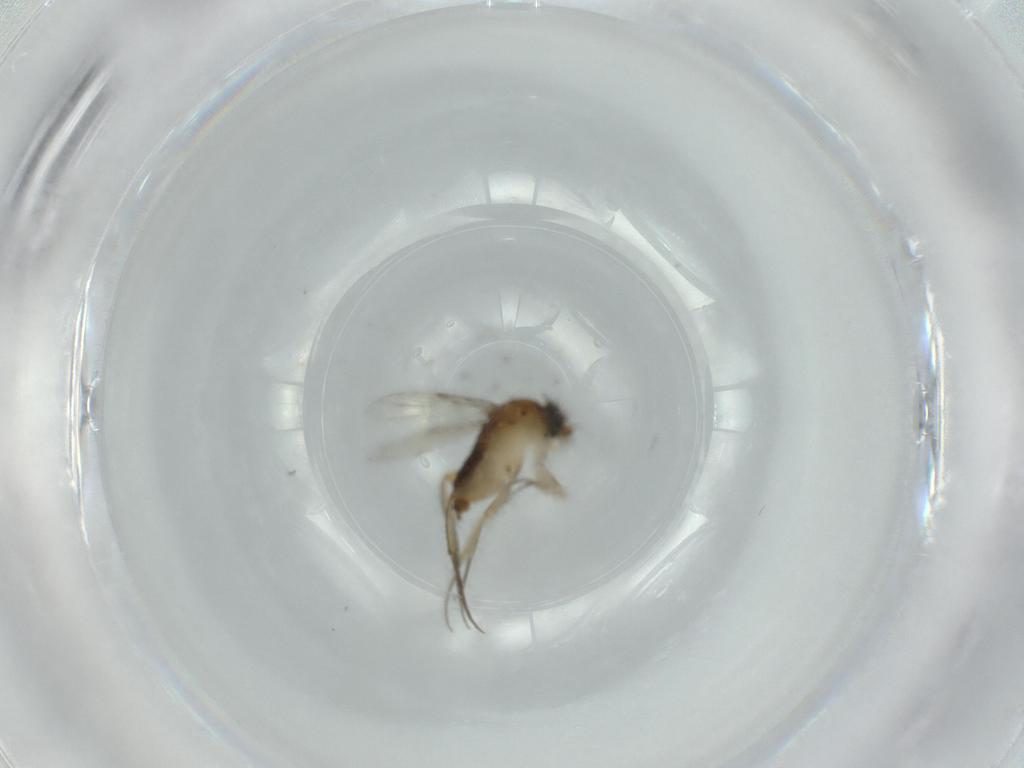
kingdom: Animalia
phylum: Arthropoda
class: Insecta
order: Diptera
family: Phoridae
